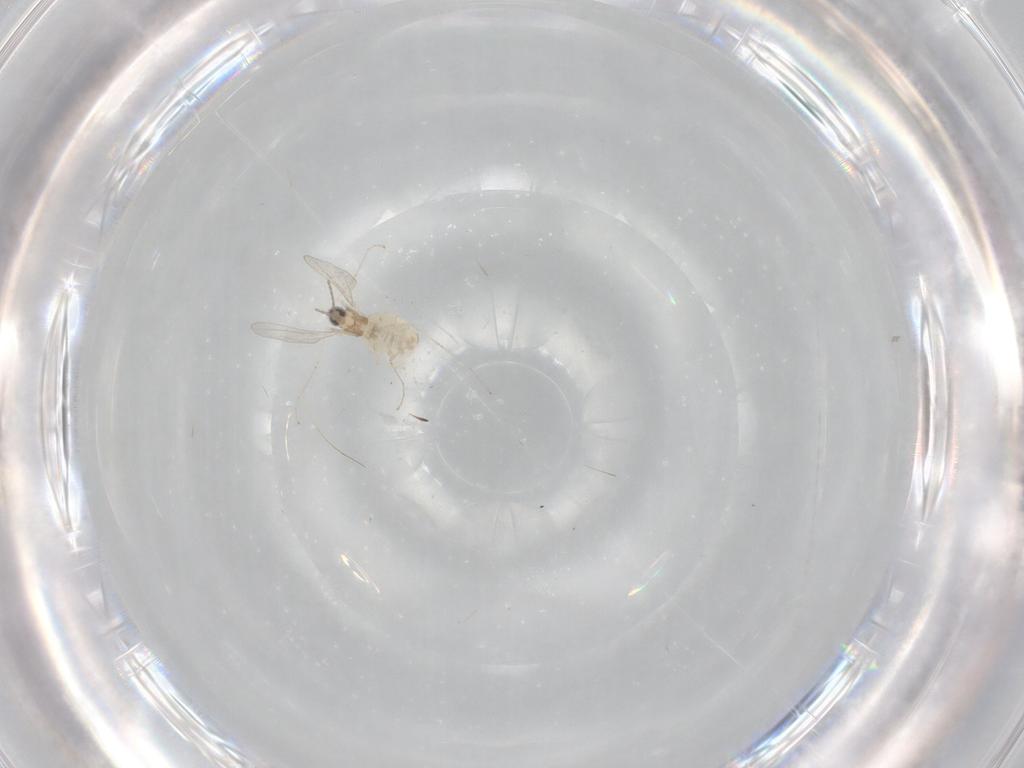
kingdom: Animalia
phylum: Arthropoda
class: Insecta
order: Diptera
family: Cecidomyiidae
